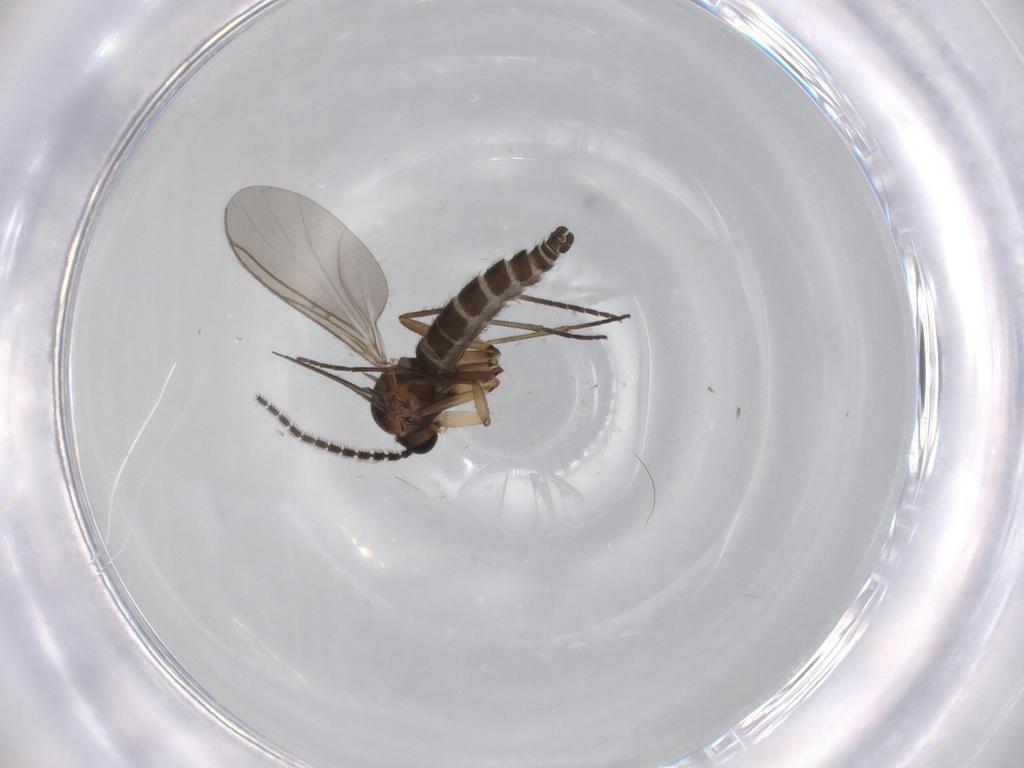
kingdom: Animalia
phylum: Arthropoda
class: Insecta
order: Diptera
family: Sciaridae
